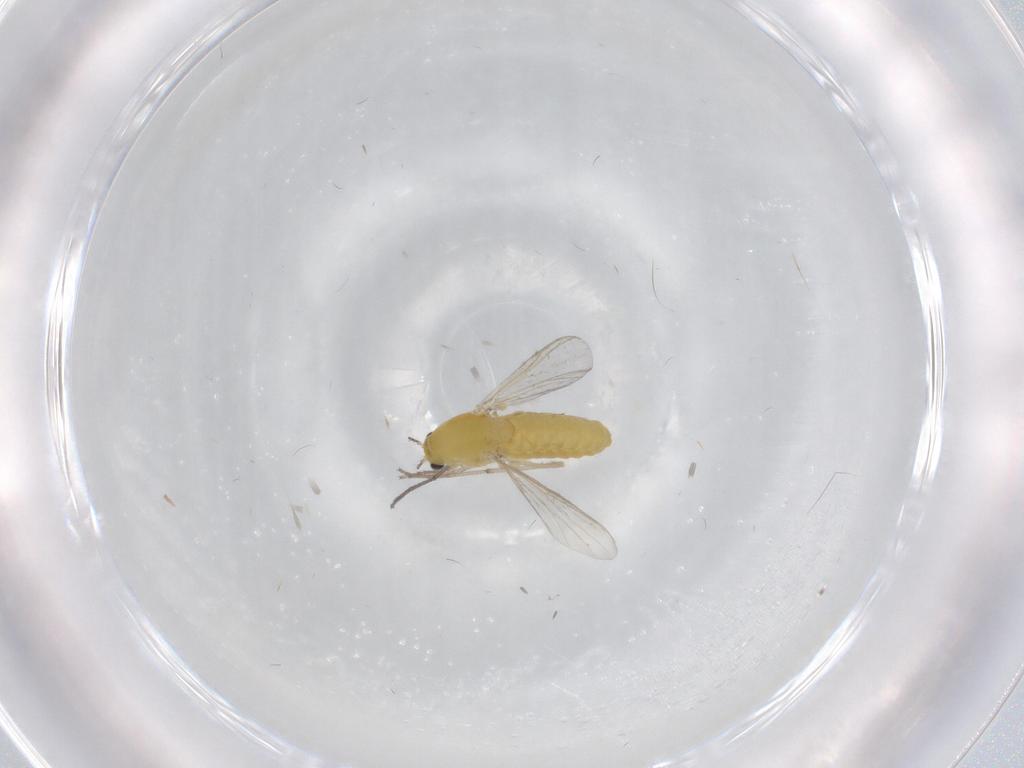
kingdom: Animalia
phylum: Arthropoda
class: Insecta
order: Diptera
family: Chironomidae
